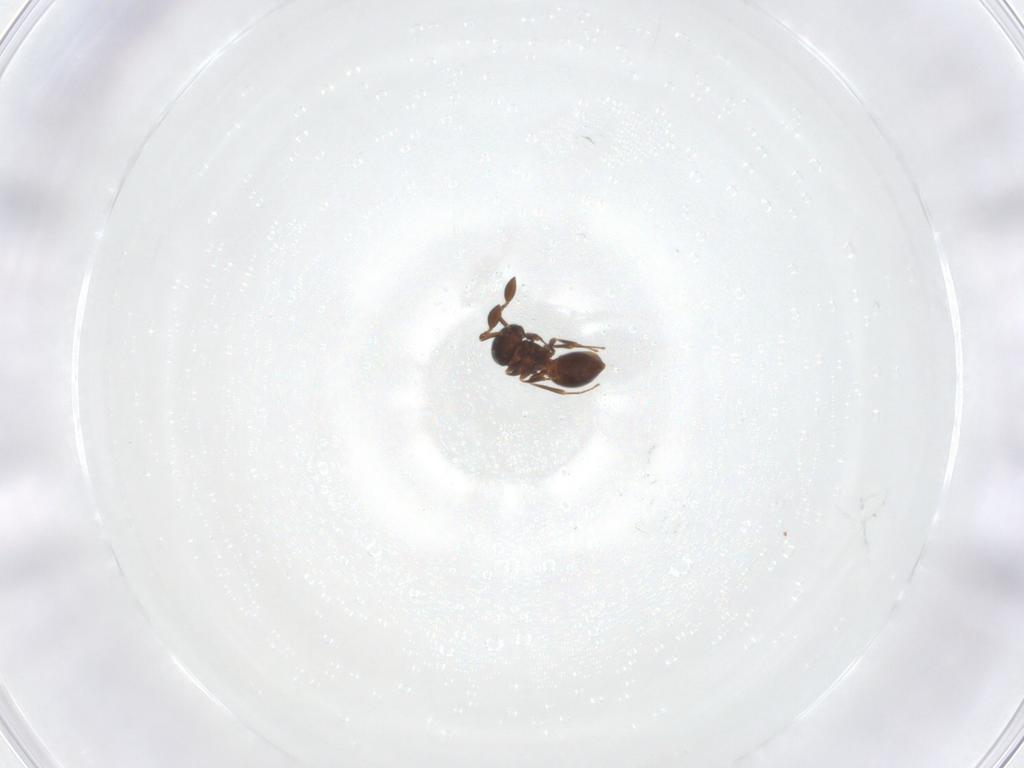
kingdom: Animalia
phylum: Arthropoda
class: Insecta
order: Hymenoptera
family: Scelionidae
